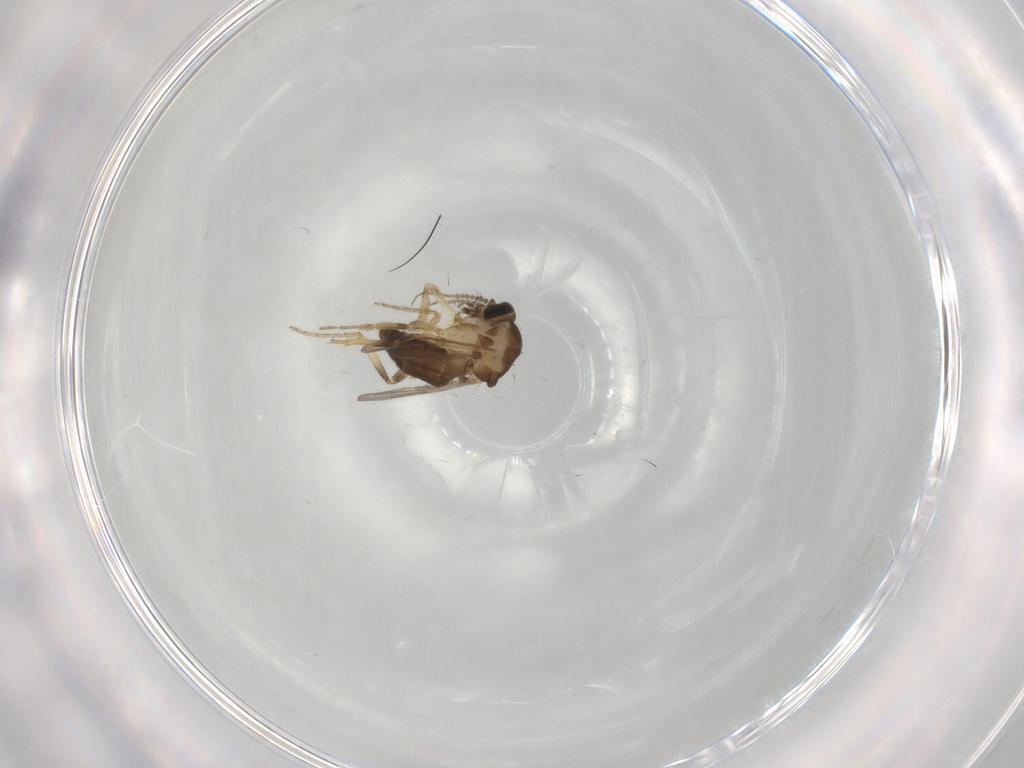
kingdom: Animalia
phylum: Arthropoda
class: Insecta
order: Diptera
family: Ceratopogonidae
